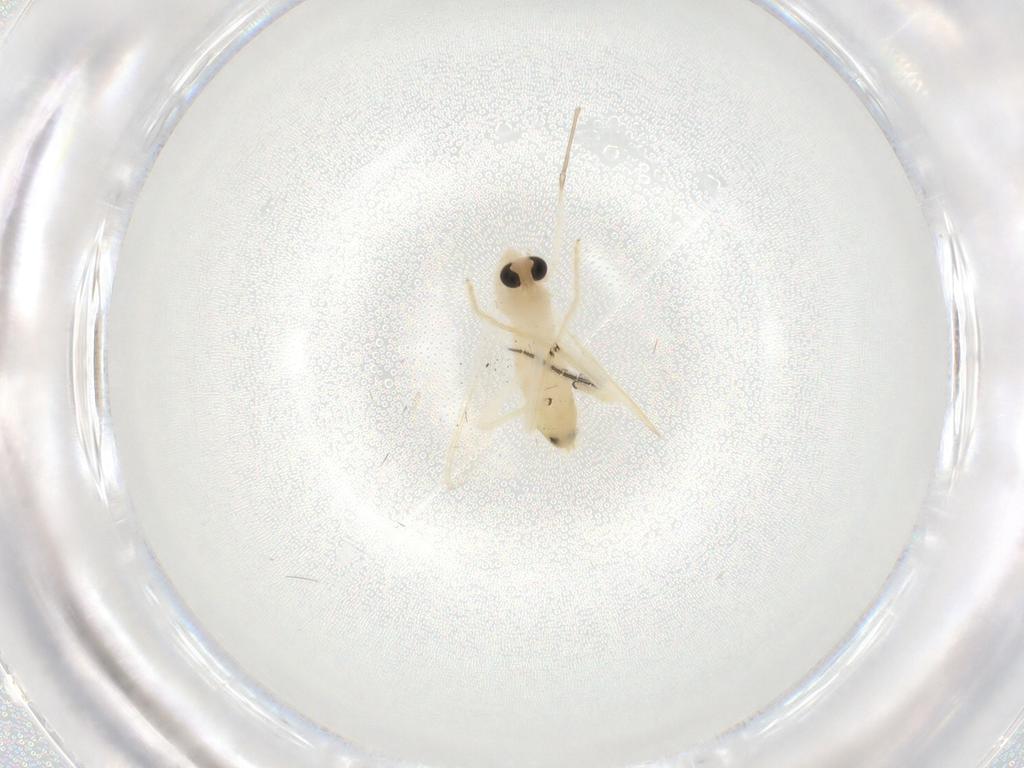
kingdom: Animalia
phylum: Arthropoda
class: Insecta
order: Diptera
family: Chironomidae
